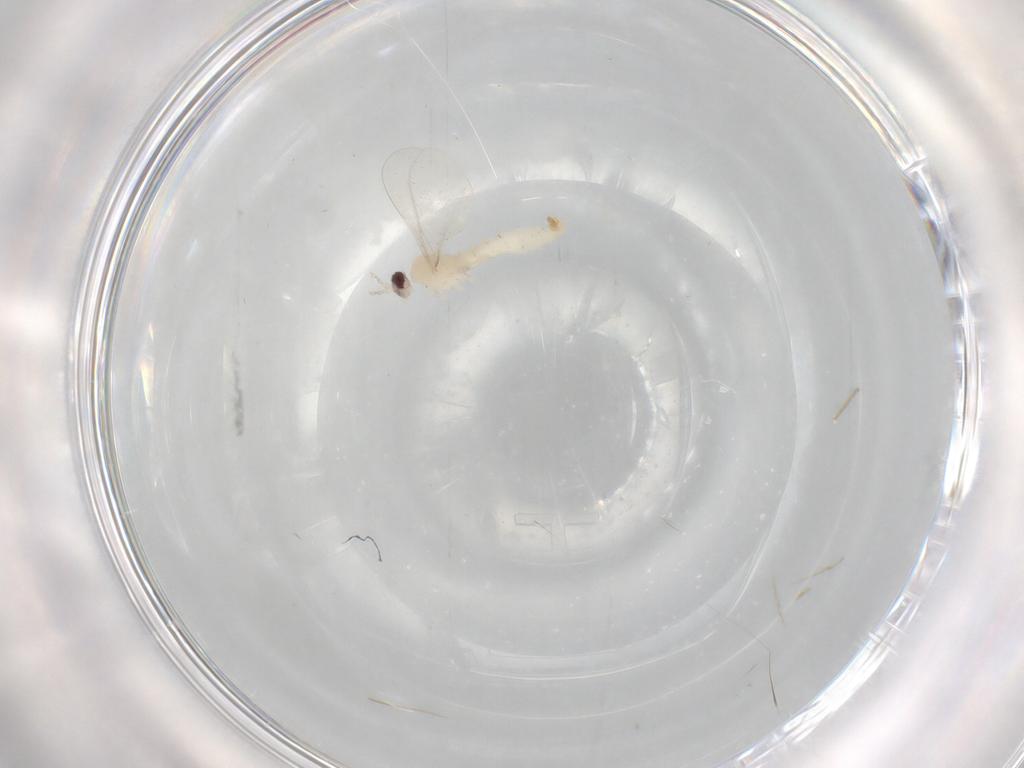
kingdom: Animalia
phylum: Arthropoda
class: Insecta
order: Diptera
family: Cecidomyiidae
